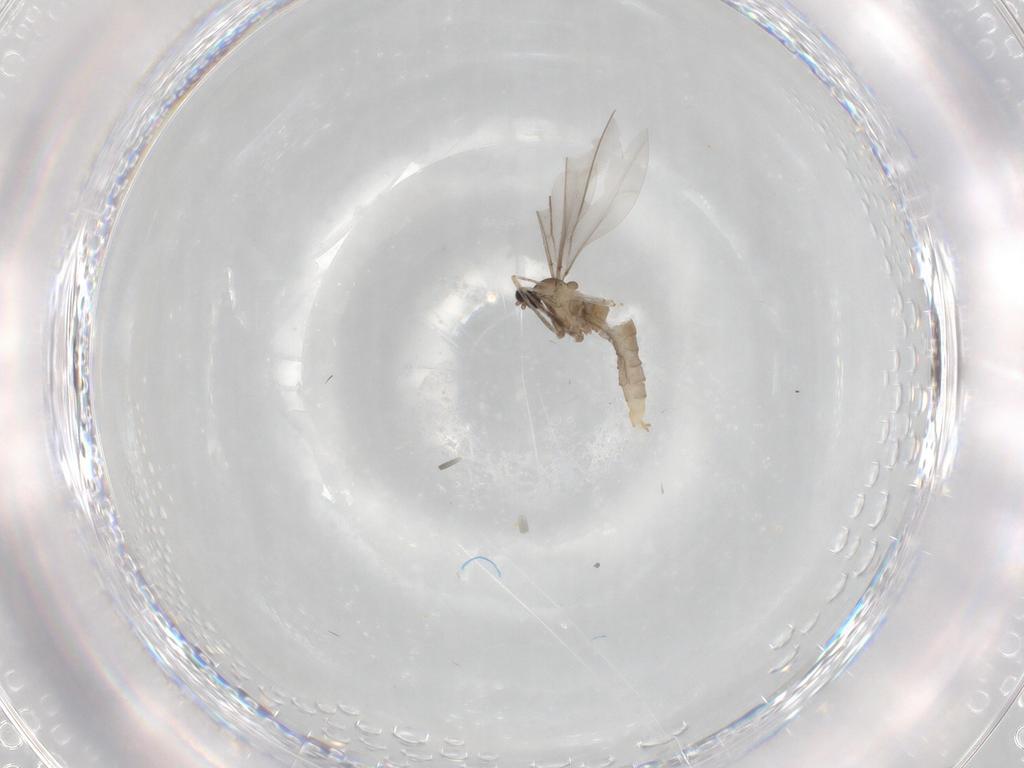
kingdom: Animalia
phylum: Arthropoda
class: Insecta
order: Diptera
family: Cecidomyiidae
